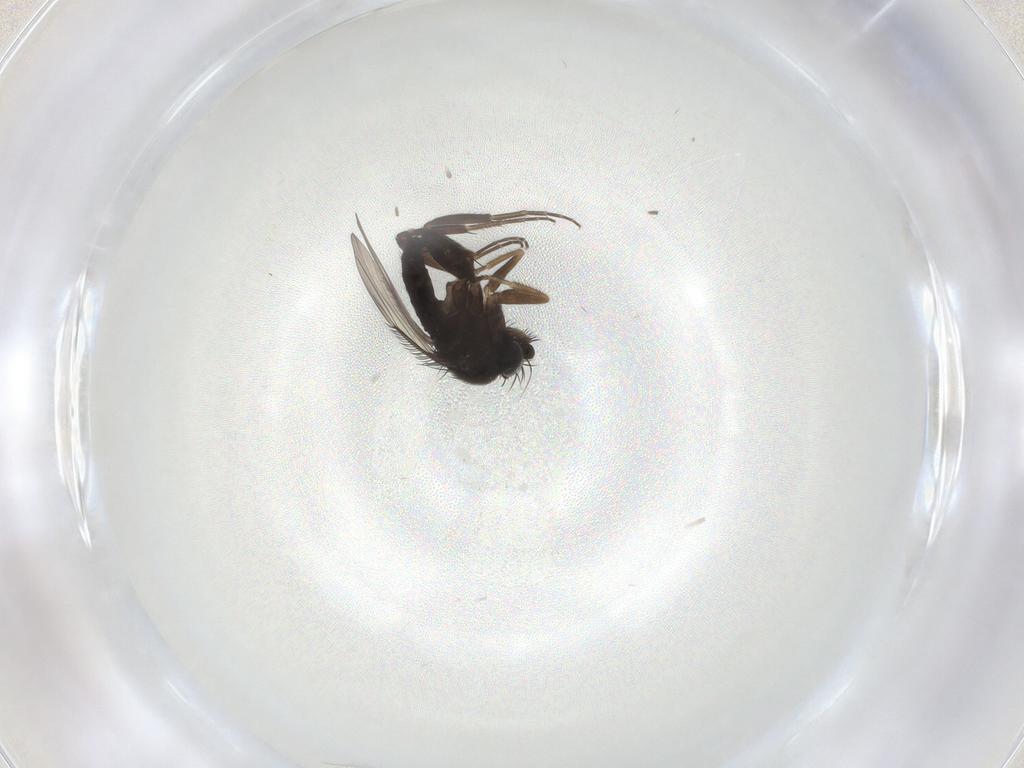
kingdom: Animalia
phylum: Arthropoda
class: Insecta
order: Diptera
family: Phoridae
